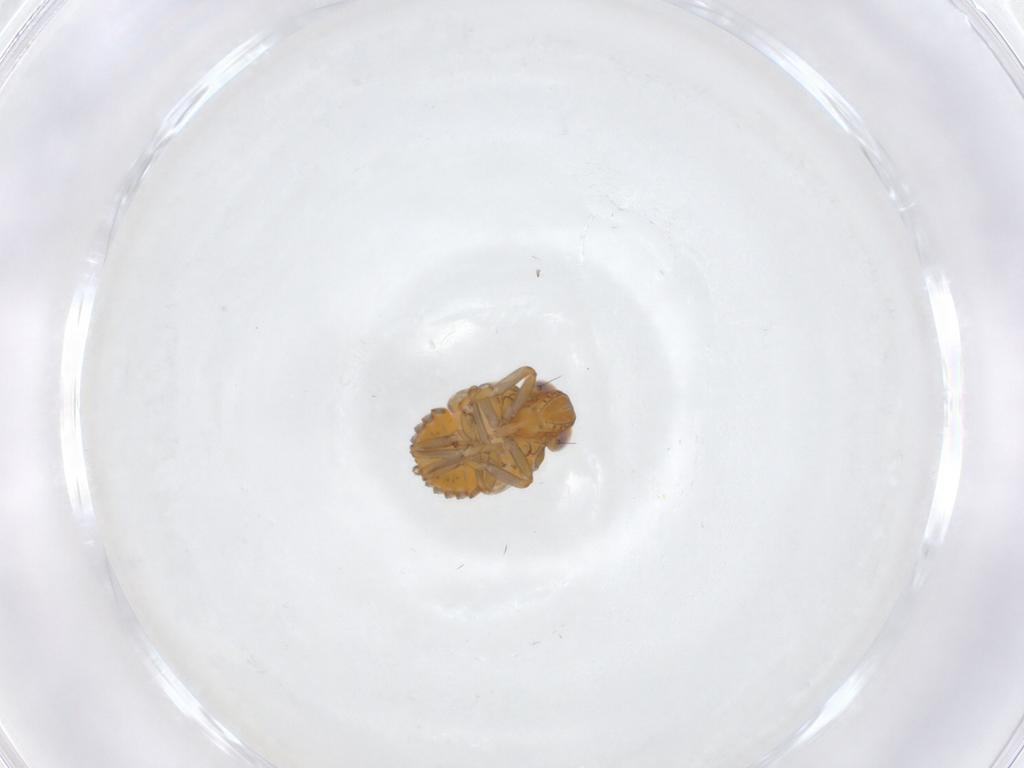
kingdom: Animalia
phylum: Arthropoda
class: Insecta
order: Hemiptera
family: Issidae
